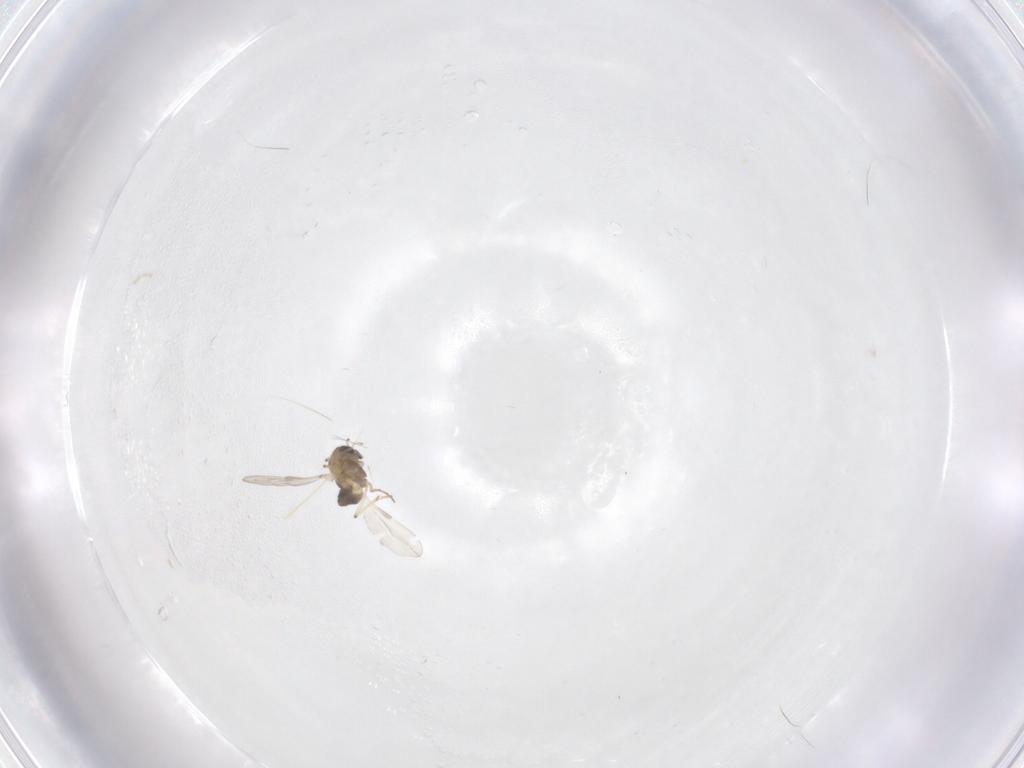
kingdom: Animalia
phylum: Arthropoda
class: Insecta
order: Diptera
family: Chironomidae
